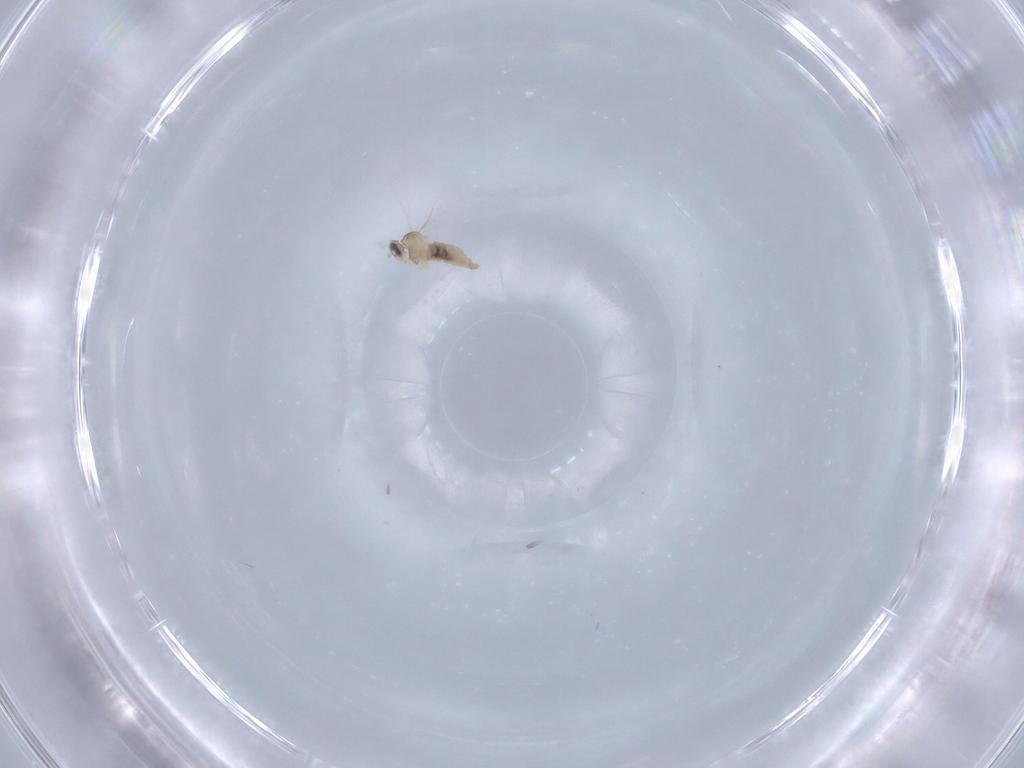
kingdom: Animalia
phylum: Arthropoda
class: Insecta
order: Diptera
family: Cecidomyiidae
